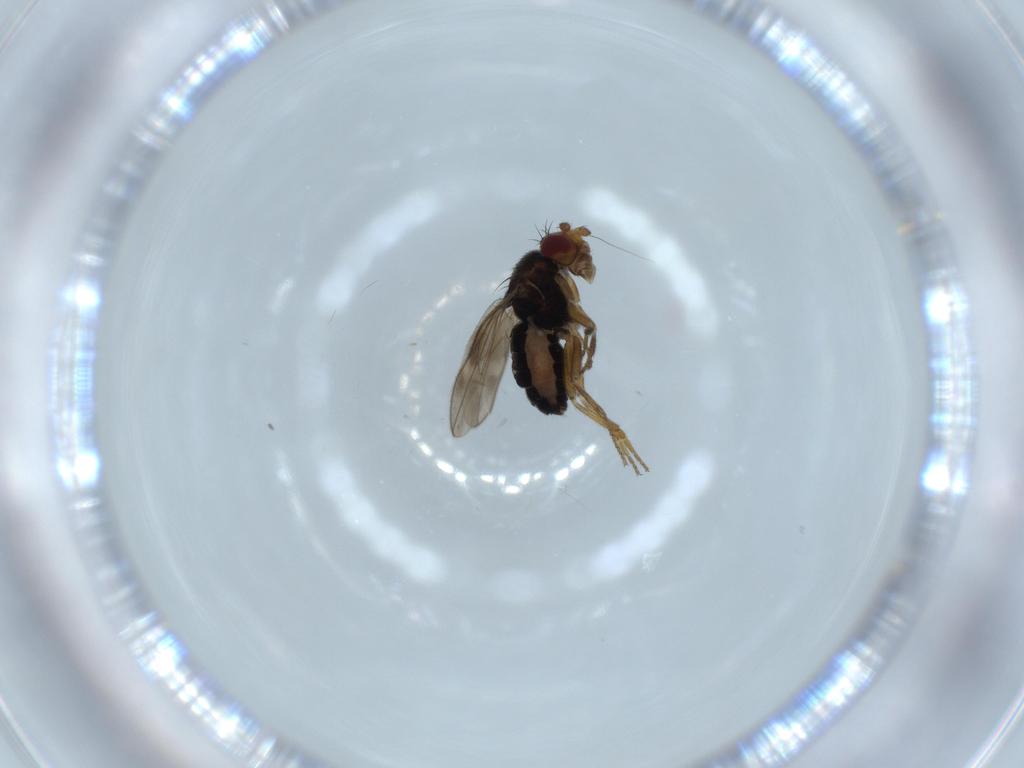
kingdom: Animalia
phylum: Arthropoda
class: Insecta
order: Diptera
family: Sphaeroceridae
